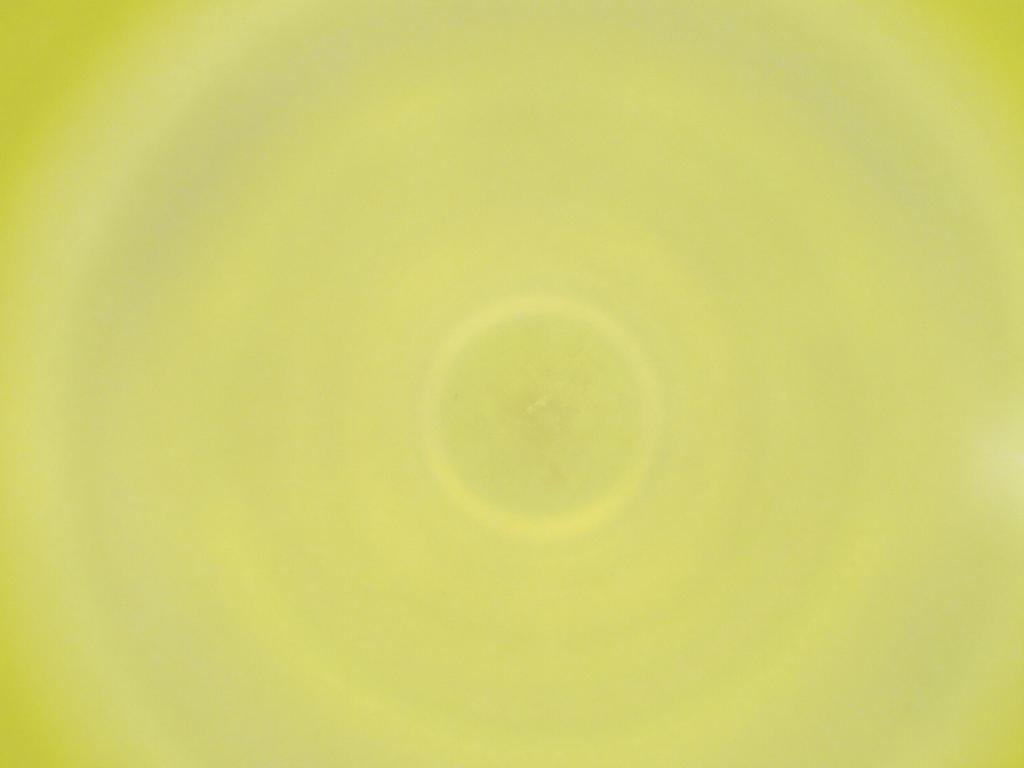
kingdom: Animalia
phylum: Arthropoda
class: Insecta
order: Diptera
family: Cecidomyiidae
